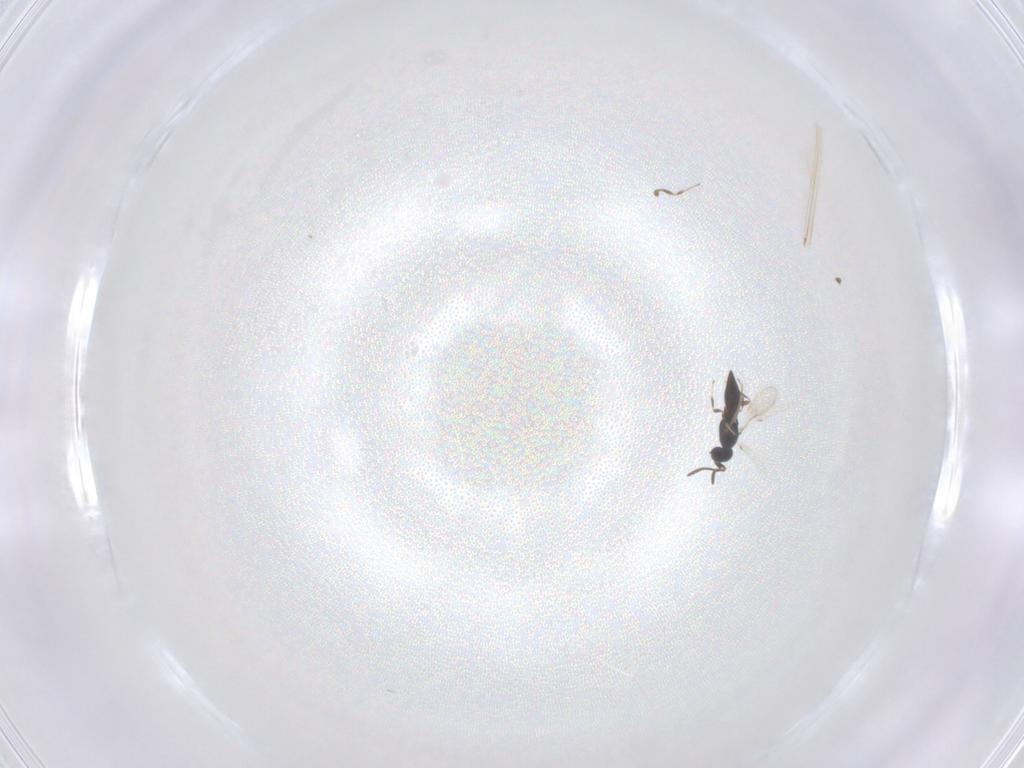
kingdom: Animalia
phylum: Arthropoda
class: Insecta
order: Hymenoptera
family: Scelionidae
